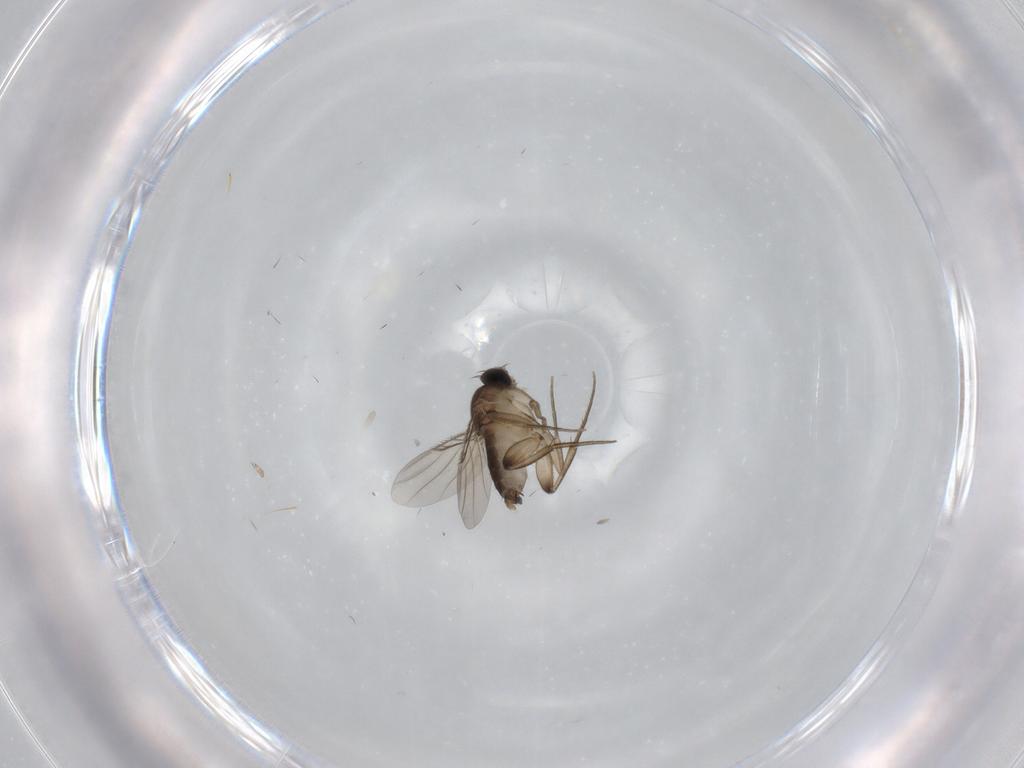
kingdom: Animalia
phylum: Arthropoda
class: Insecta
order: Diptera
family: Phoridae
